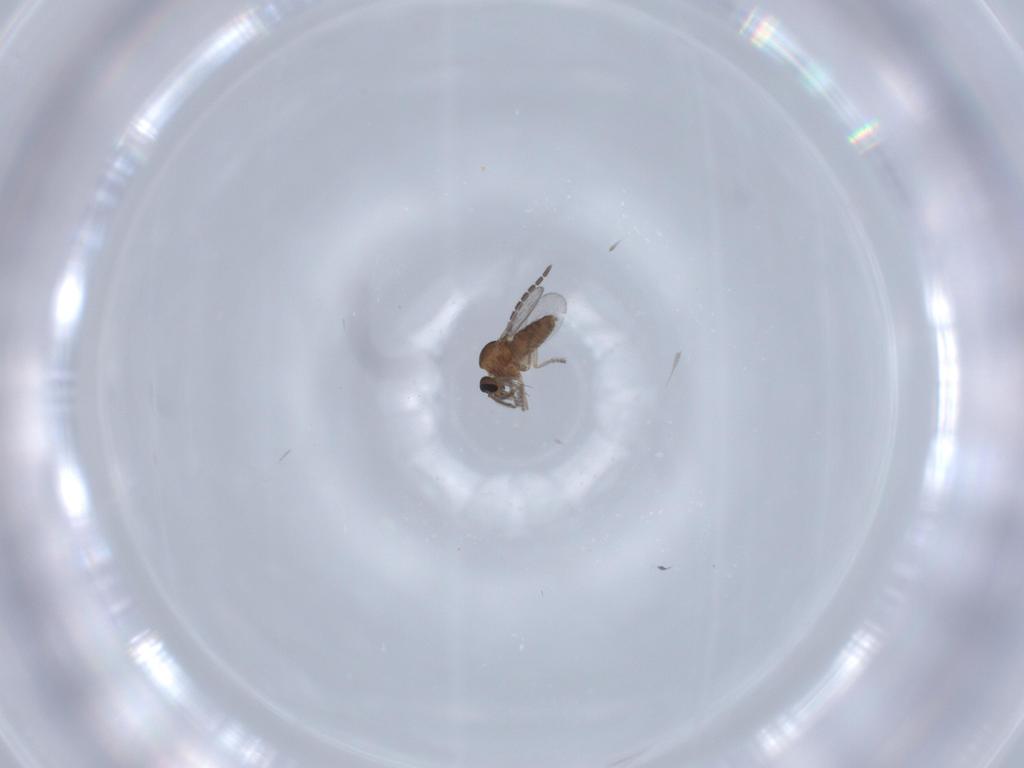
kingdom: Animalia
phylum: Arthropoda
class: Insecta
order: Diptera
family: Ceratopogonidae
